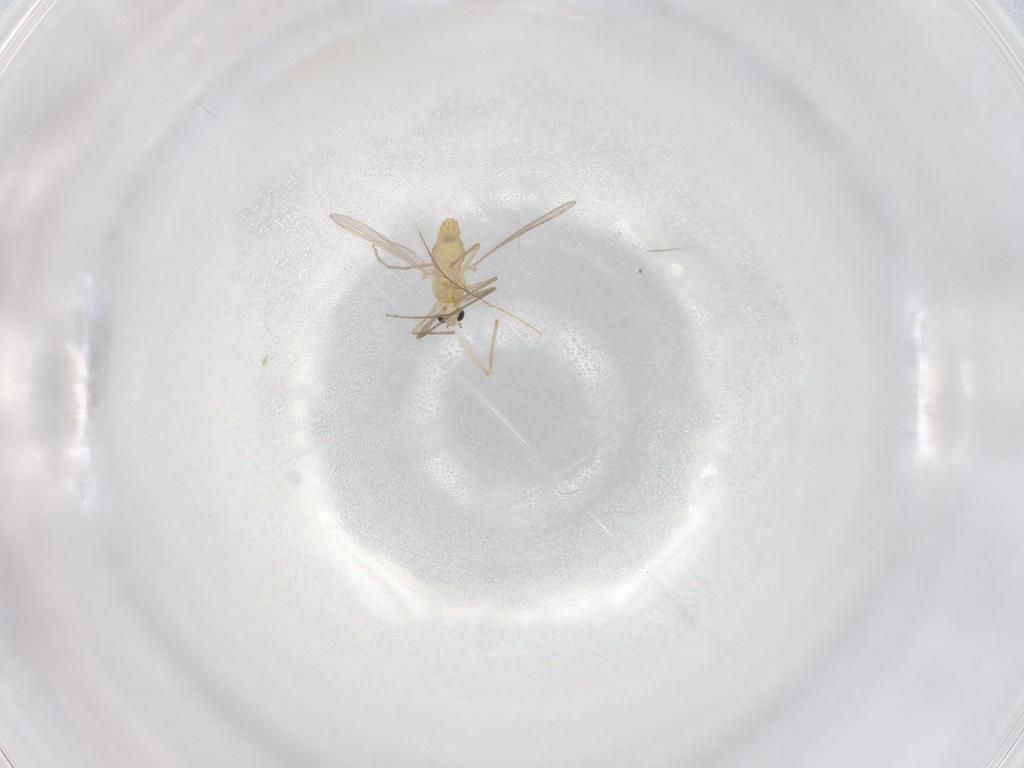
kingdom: Animalia
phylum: Arthropoda
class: Insecta
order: Diptera
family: Chironomidae
